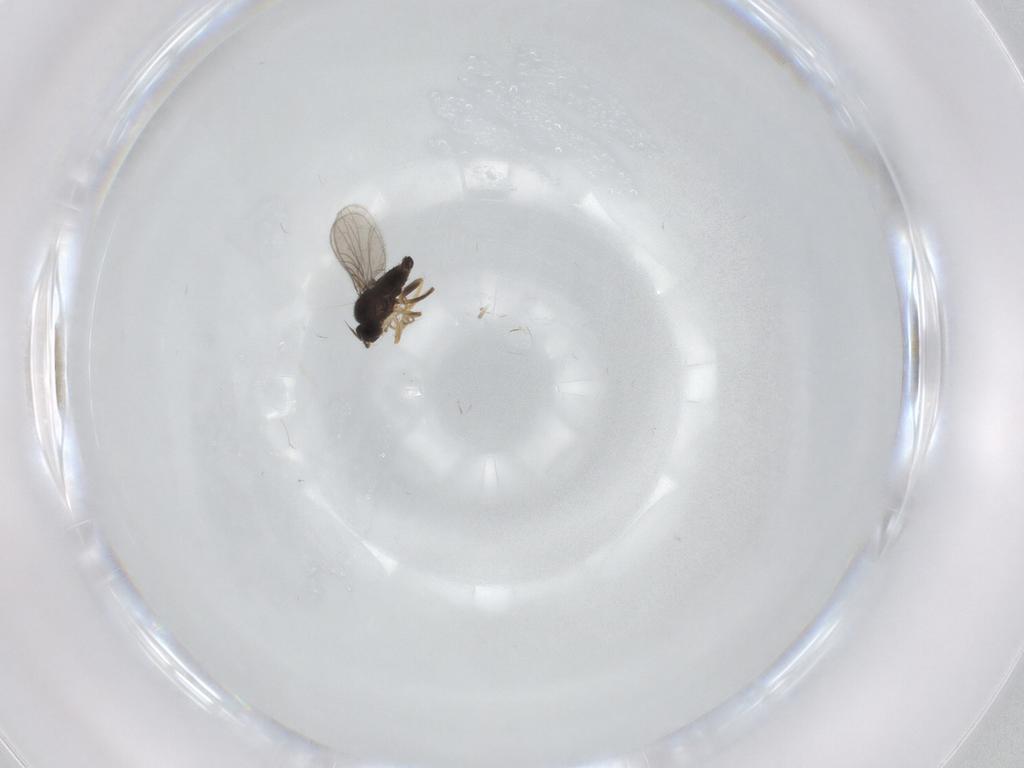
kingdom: Animalia
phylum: Arthropoda
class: Insecta
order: Diptera
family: Hybotidae
